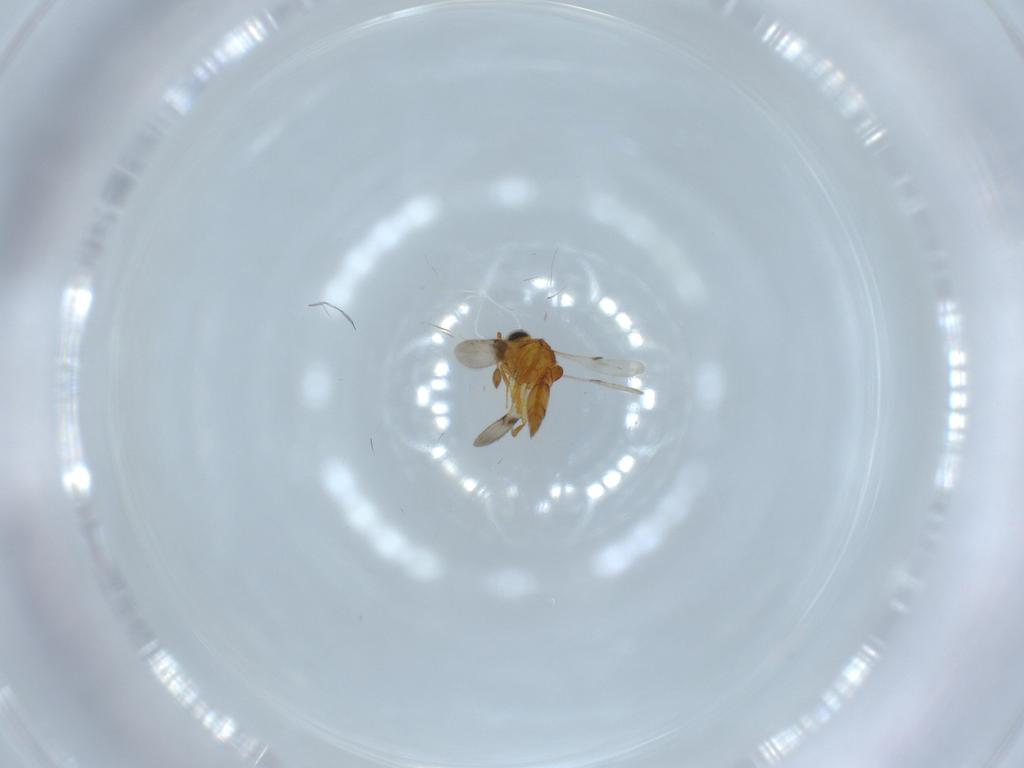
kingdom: Animalia
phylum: Arthropoda
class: Insecta
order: Hymenoptera
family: Scelionidae
